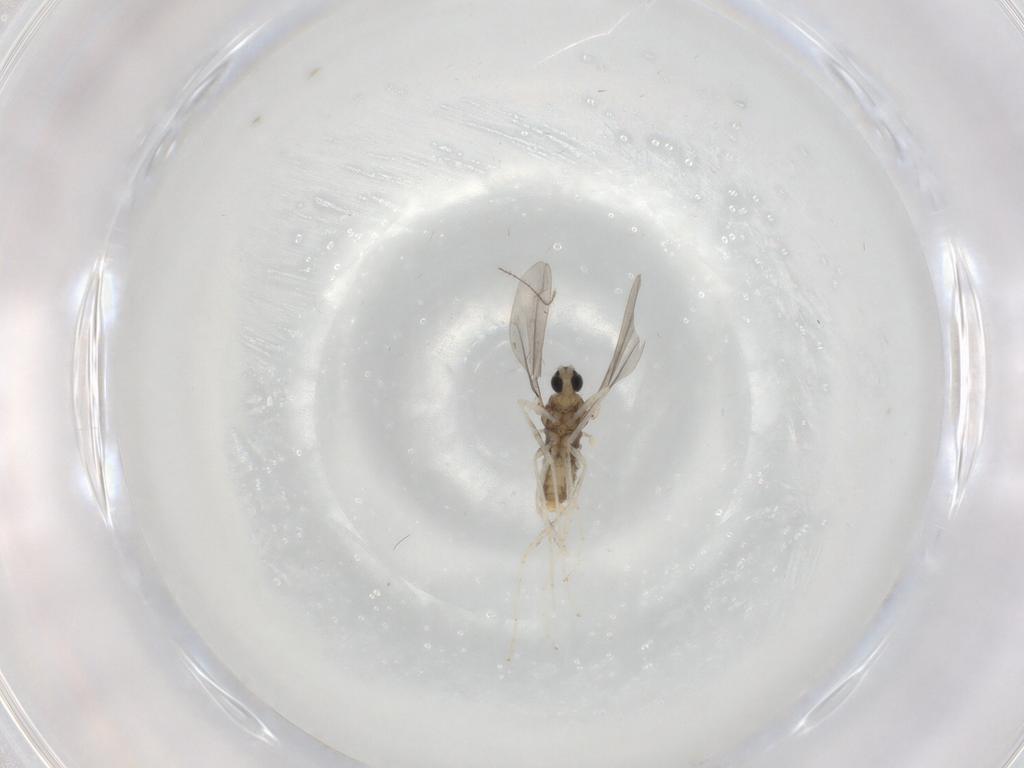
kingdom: Animalia
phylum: Arthropoda
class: Insecta
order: Diptera
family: Cecidomyiidae
